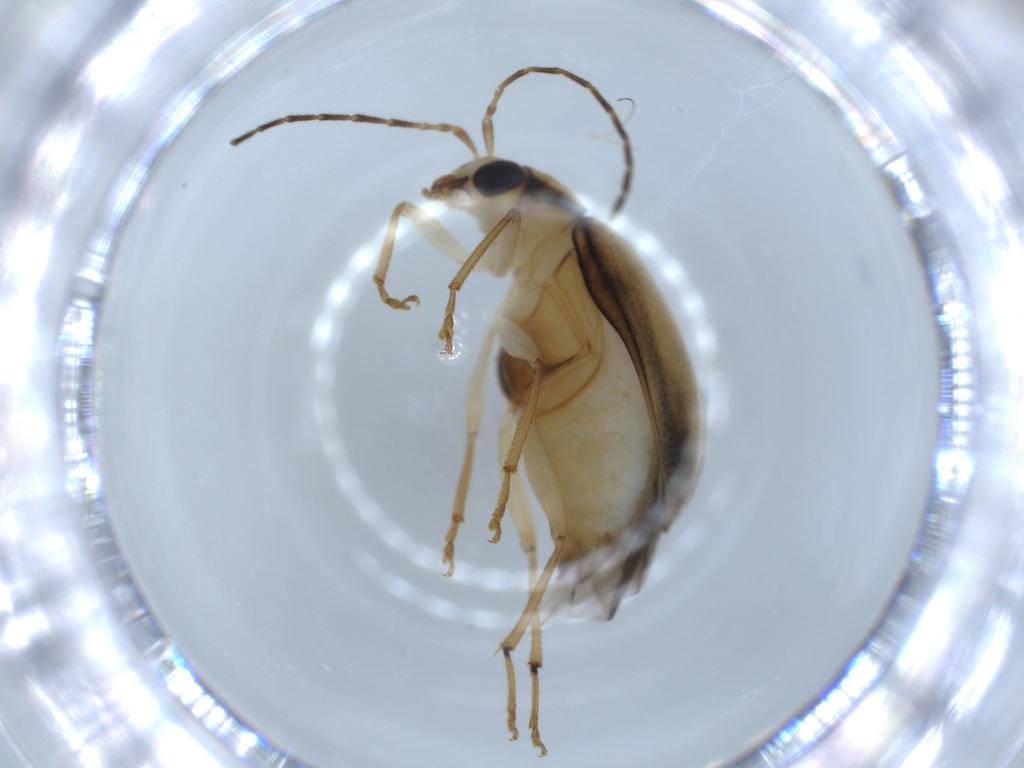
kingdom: Animalia
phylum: Arthropoda
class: Insecta
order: Coleoptera
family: Chrysomelidae
